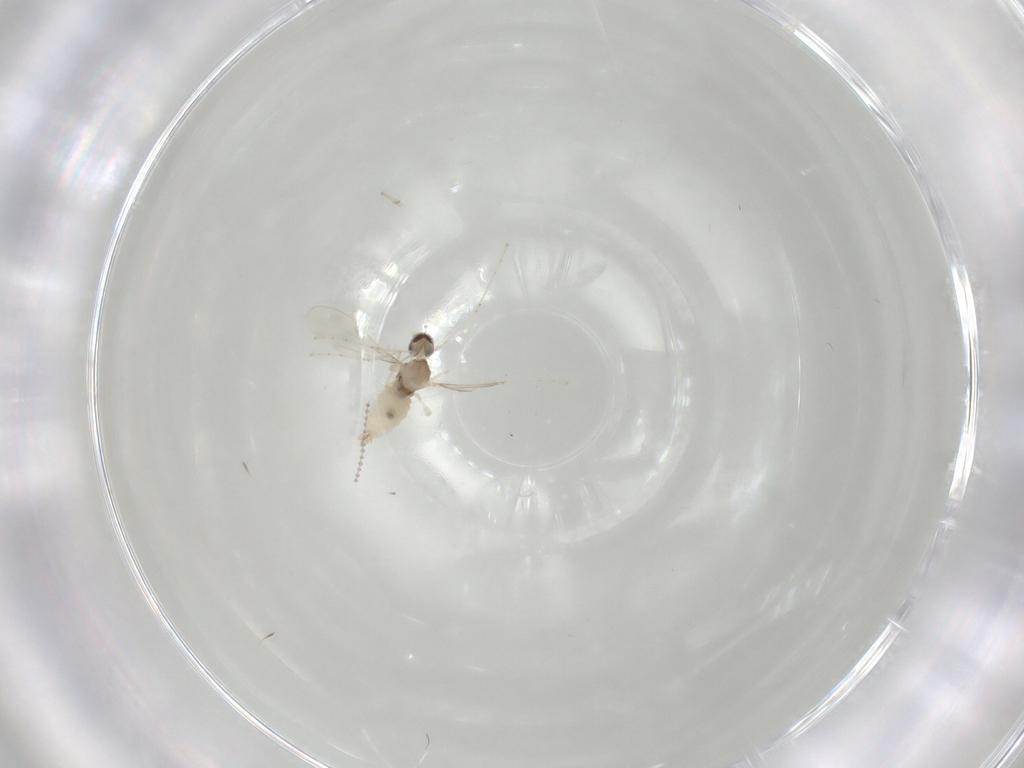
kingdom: Animalia
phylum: Arthropoda
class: Insecta
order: Diptera
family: Cecidomyiidae
